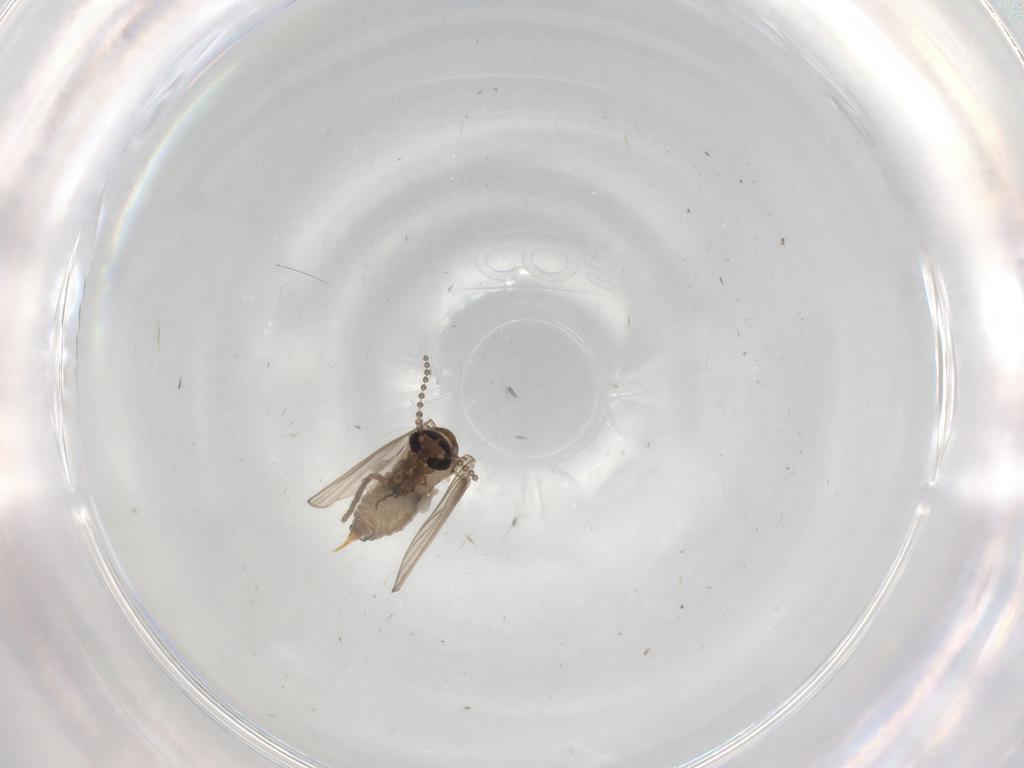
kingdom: Animalia
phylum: Arthropoda
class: Insecta
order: Diptera
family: Psychodidae
